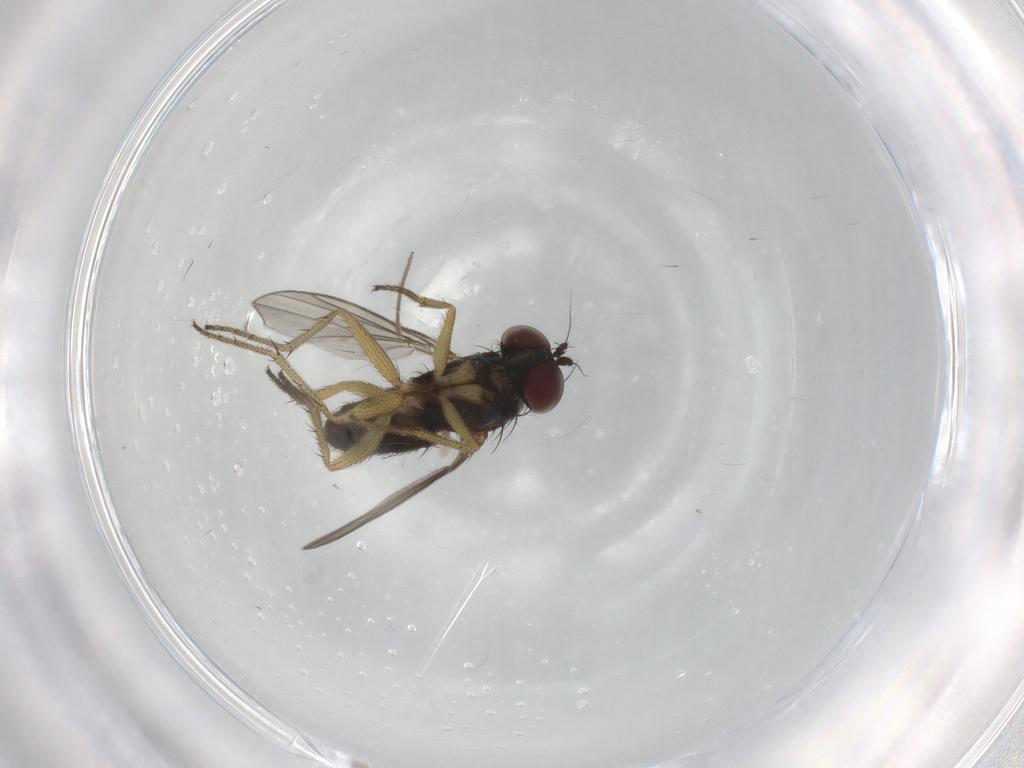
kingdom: Animalia
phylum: Arthropoda
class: Insecta
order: Diptera
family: Dolichopodidae
